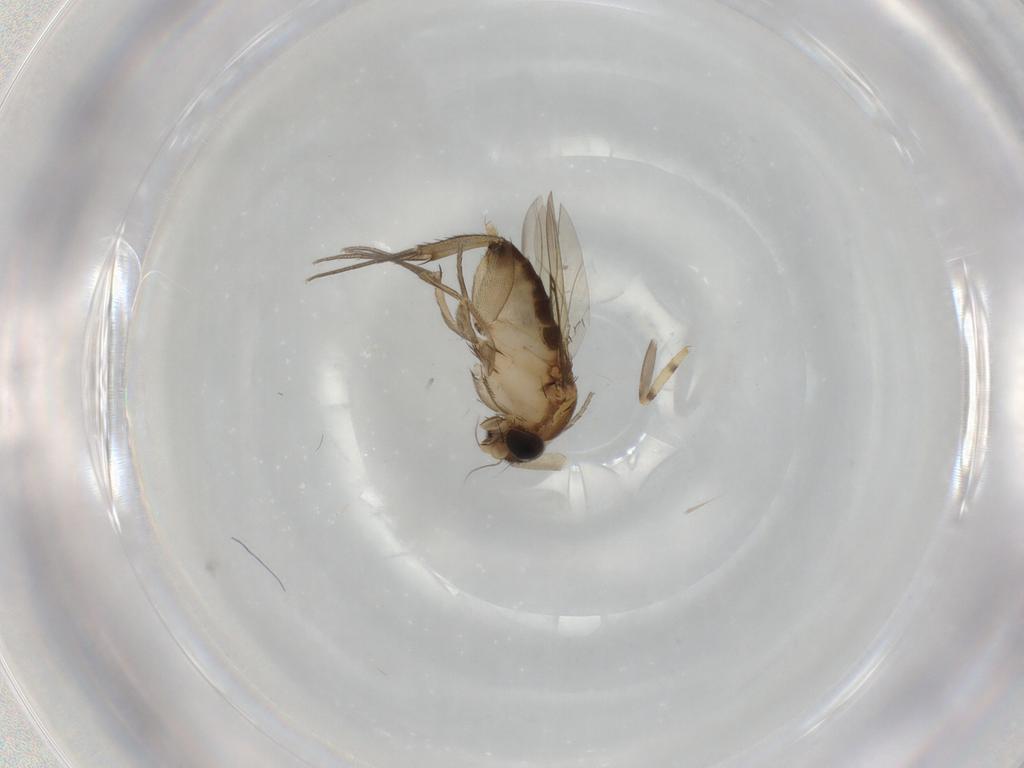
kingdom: Animalia
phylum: Arthropoda
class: Insecta
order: Diptera
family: Phoridae
